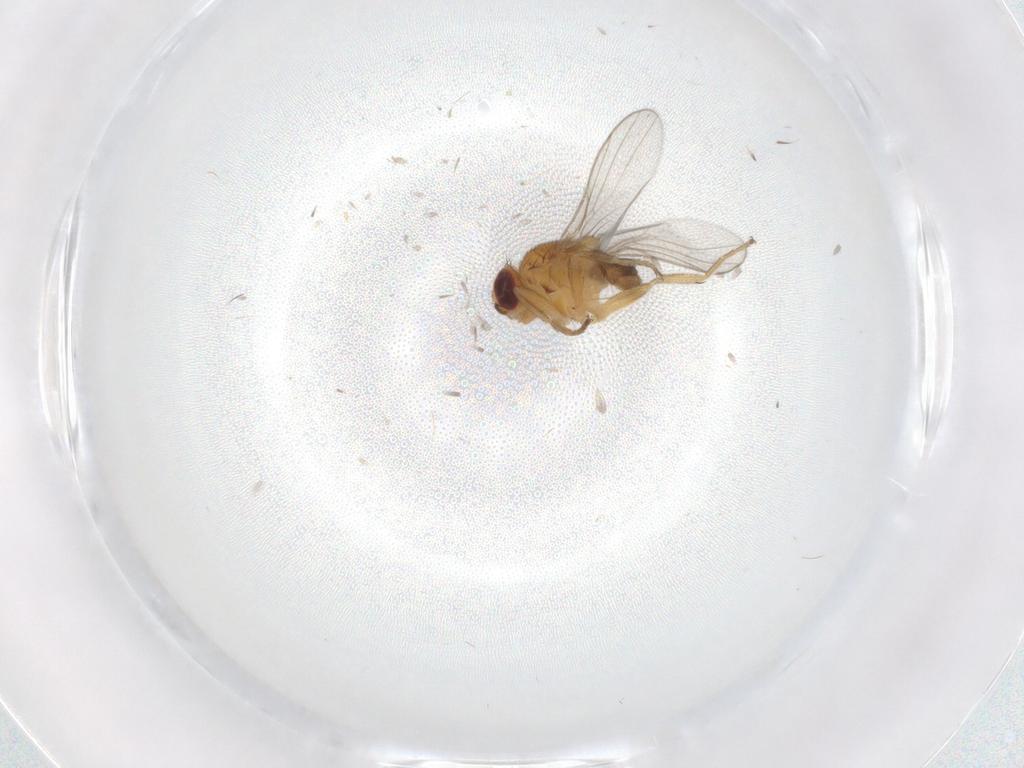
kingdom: Animalia
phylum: Arthropoda
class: Insecta
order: Diptera
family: Chloropidae
